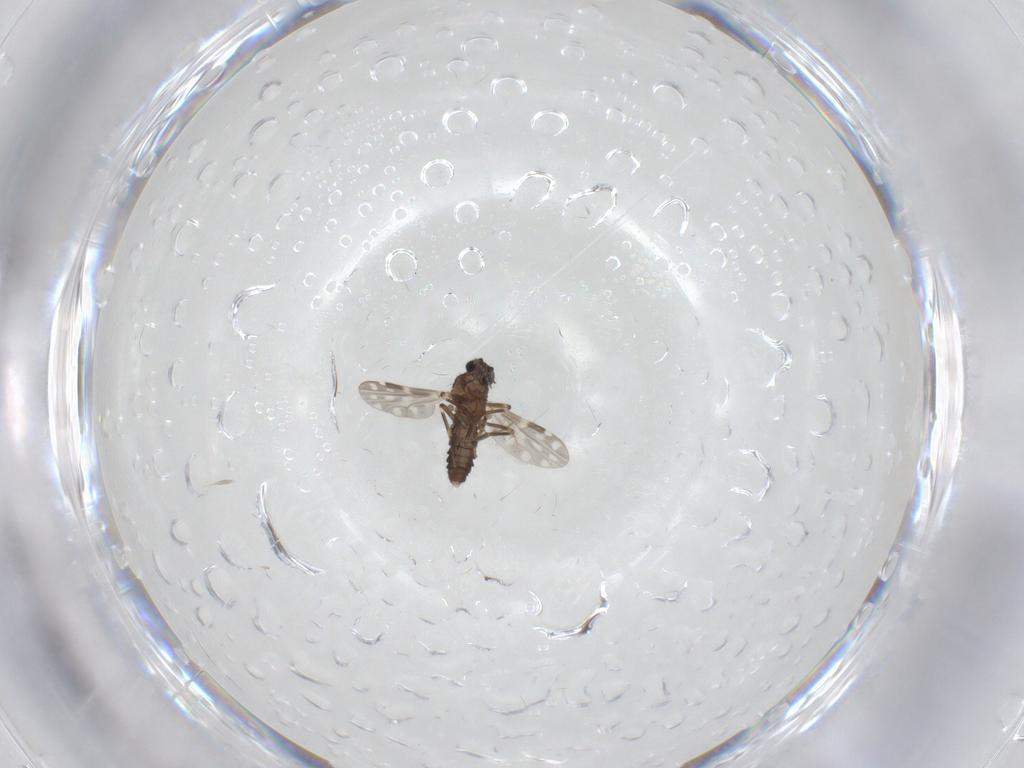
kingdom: Animalia
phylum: Arthropoda
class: Insecta
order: Diptera
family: Ceratopogonidae
